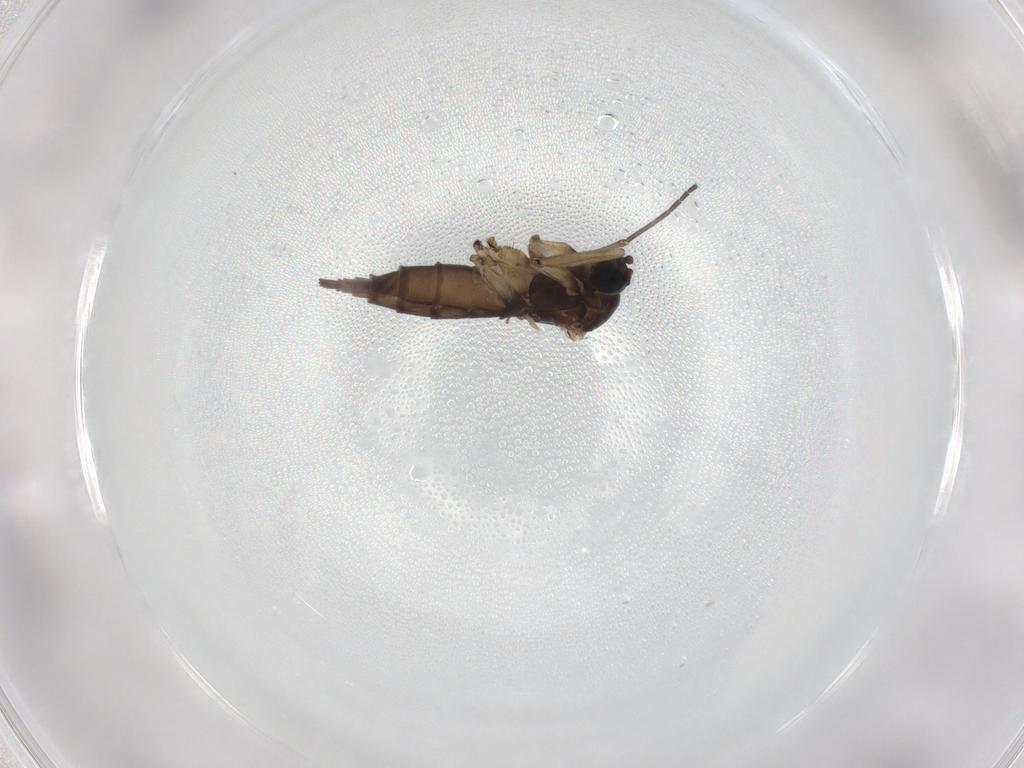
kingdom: Animalia
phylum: Arthropoda
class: Insecta
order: Diptera
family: Sciaridae
